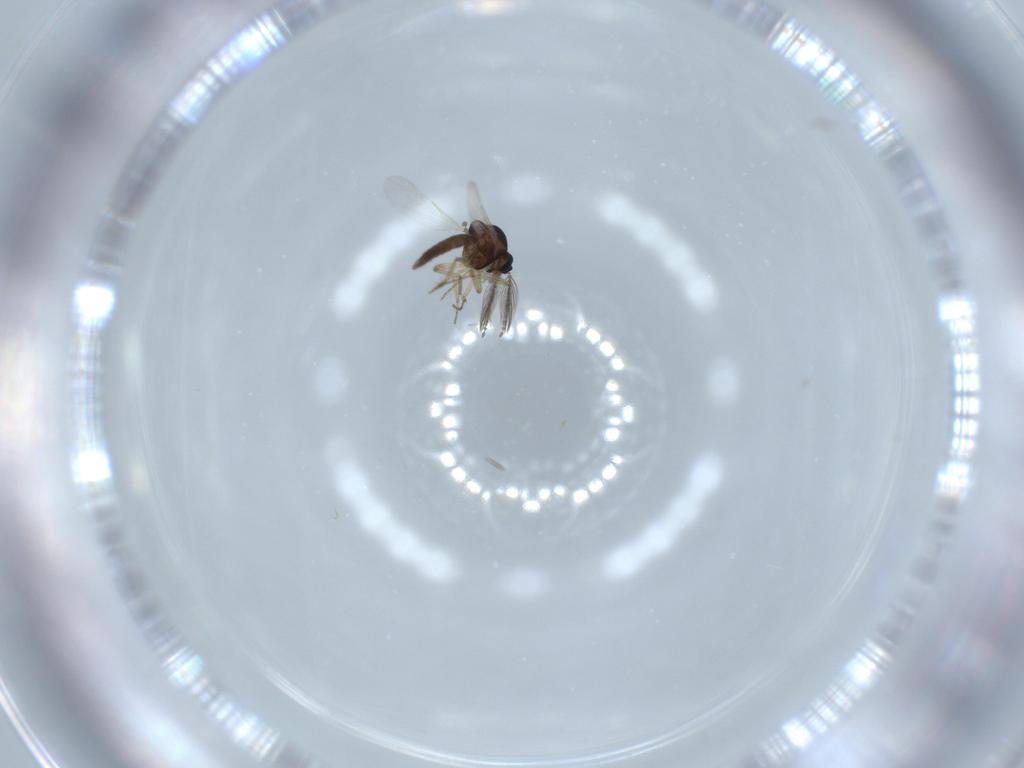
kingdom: Animalia
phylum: Arthropoda
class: Insecta
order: Diptera
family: Ceratopogonidae
